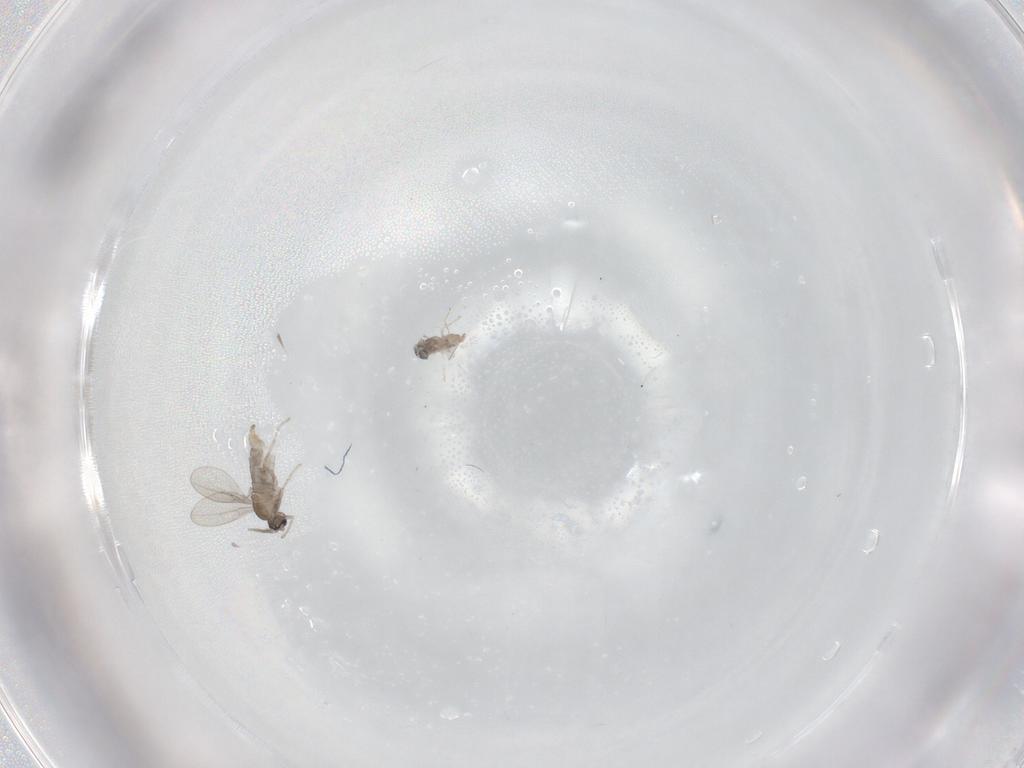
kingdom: Animalia
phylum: Arthropoda
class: Insecta
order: Diptera
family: Cecidomyiidae
